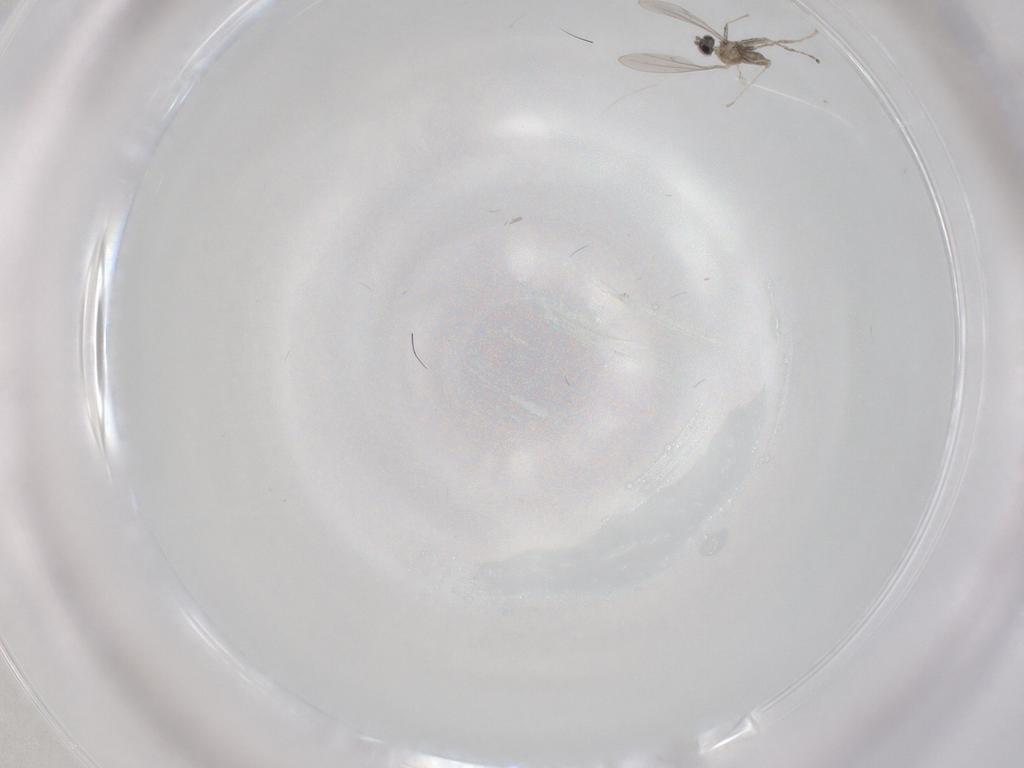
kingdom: Animalia
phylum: Arthropoda
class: Insecta
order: Diptera
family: Cecidomyiidae
